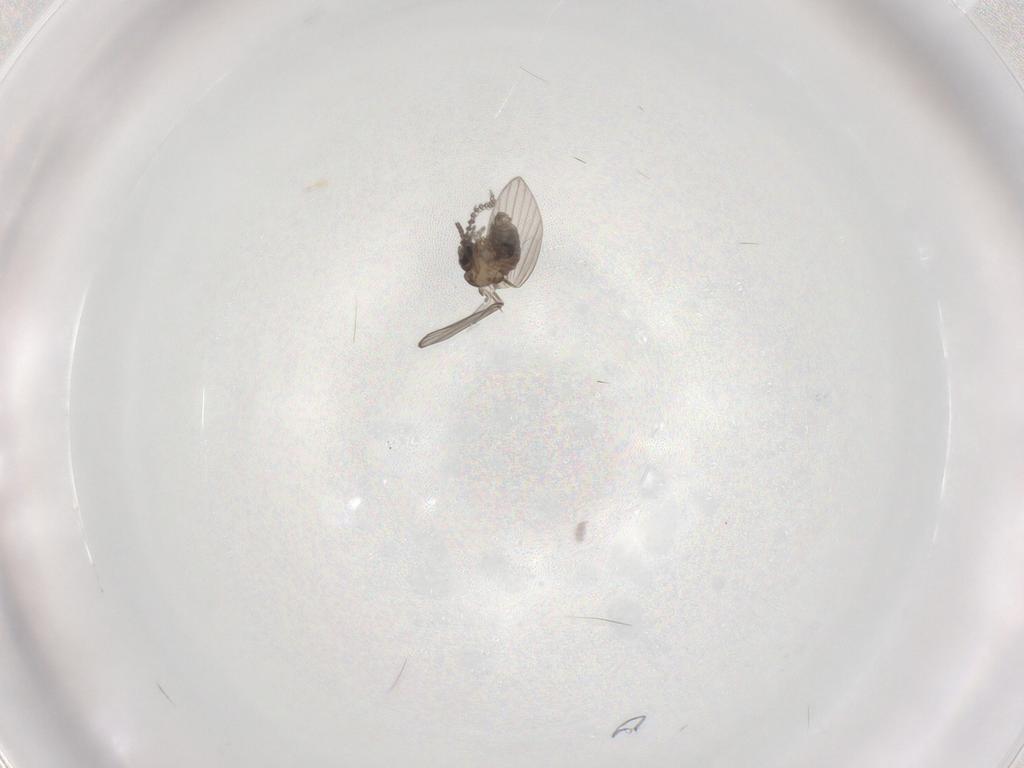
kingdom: Animalia
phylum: Arthropoda
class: Insecta
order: Diptera
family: Psychodidae
